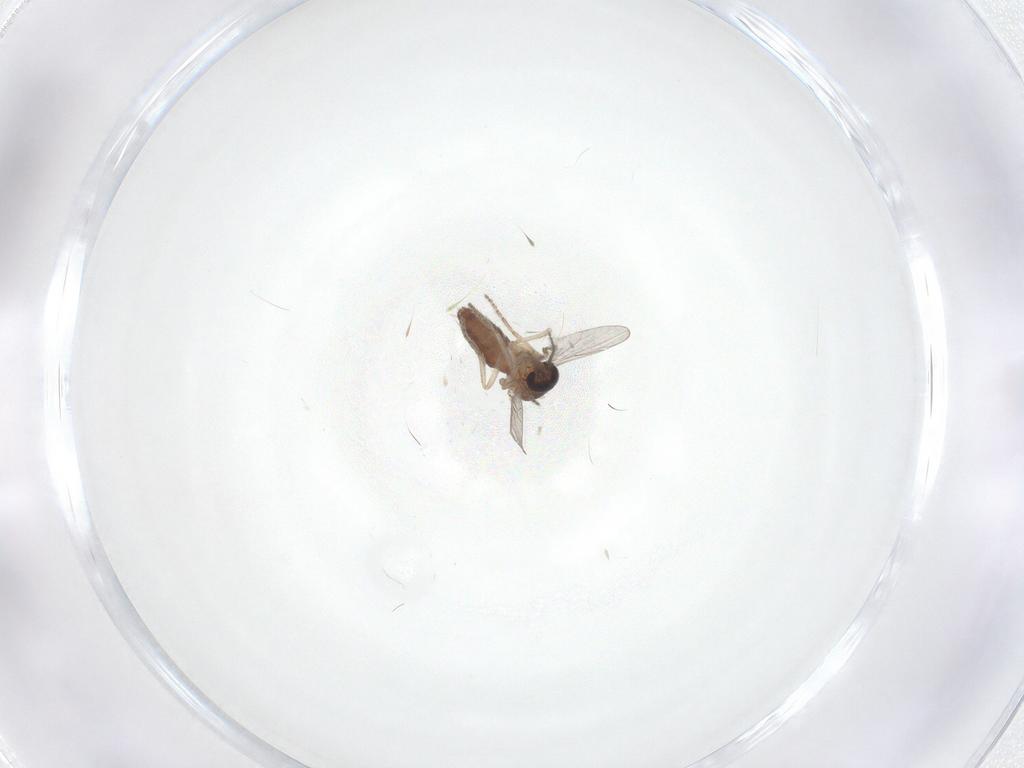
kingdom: Animalia
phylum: Arthropoda
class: Insecta
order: Diptera
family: Ceratopogonidae
